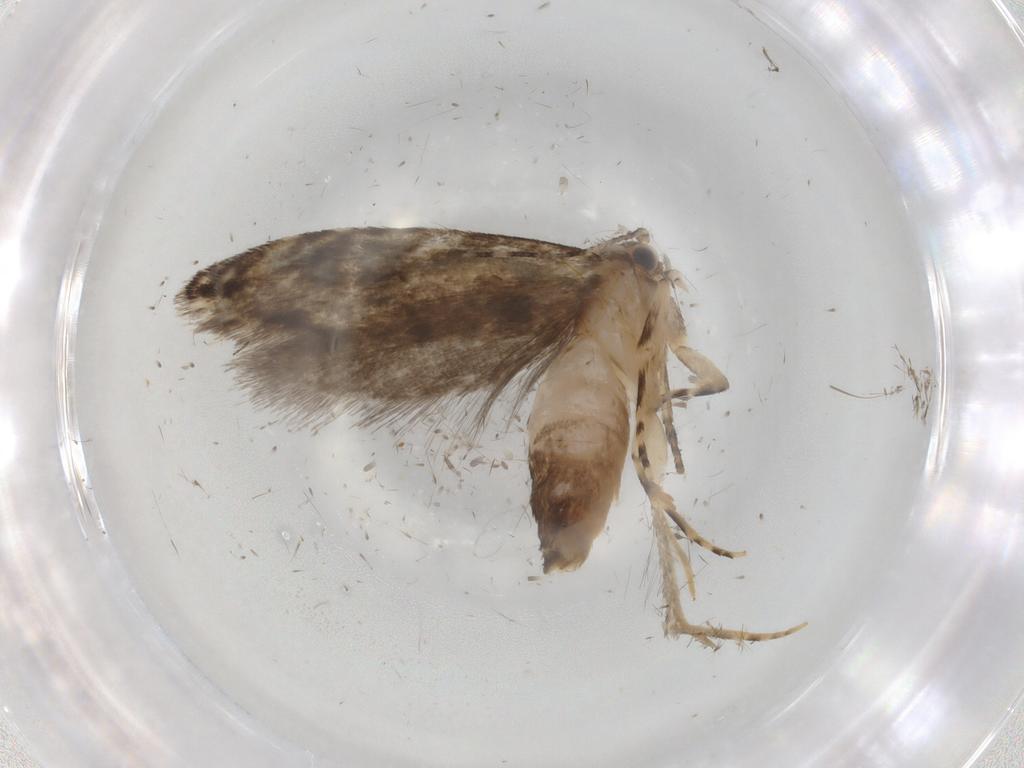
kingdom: Animalia
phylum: Arthropoda
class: Insecta
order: Lepidoptera
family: Tineidae
